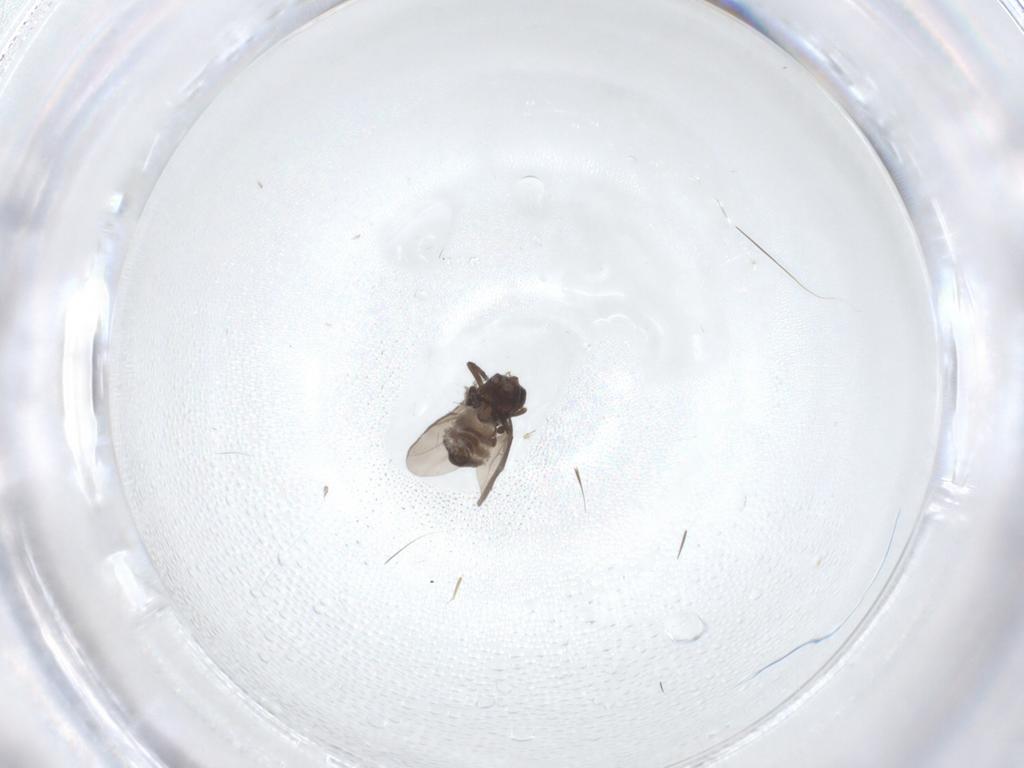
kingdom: Animalia
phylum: Arthropoda
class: Insecta
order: Diptera
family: Sphaeroceridae
